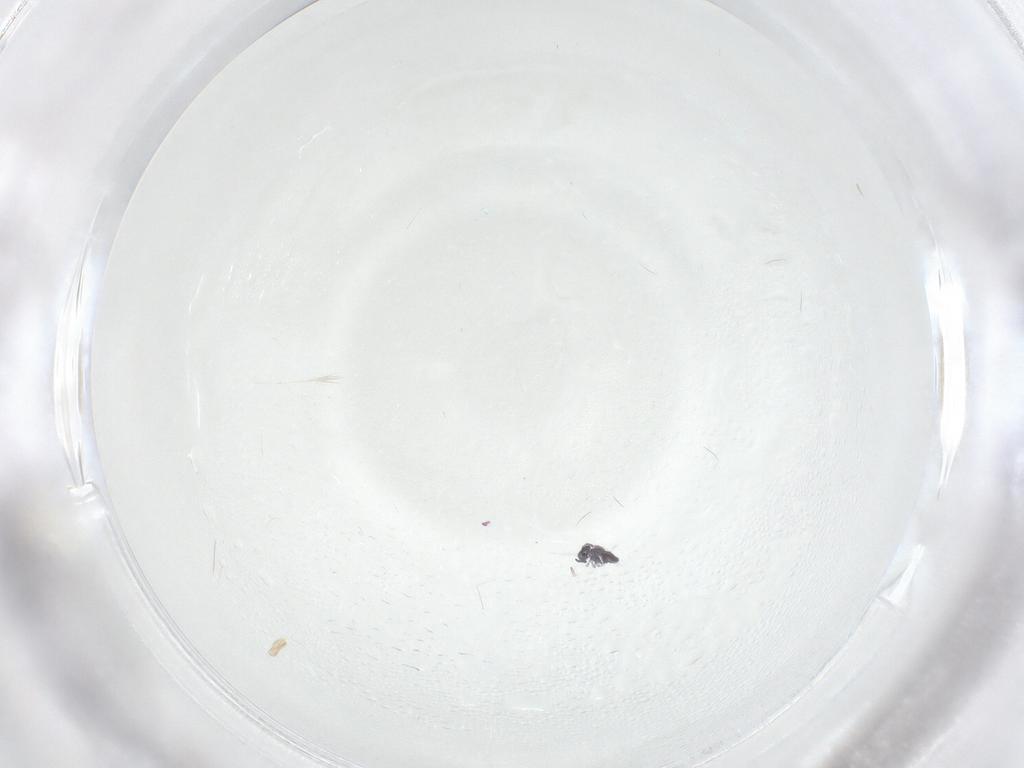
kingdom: Animalia
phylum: Arthropoda
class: Collembola
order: Symphypleona
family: Katiannidae
